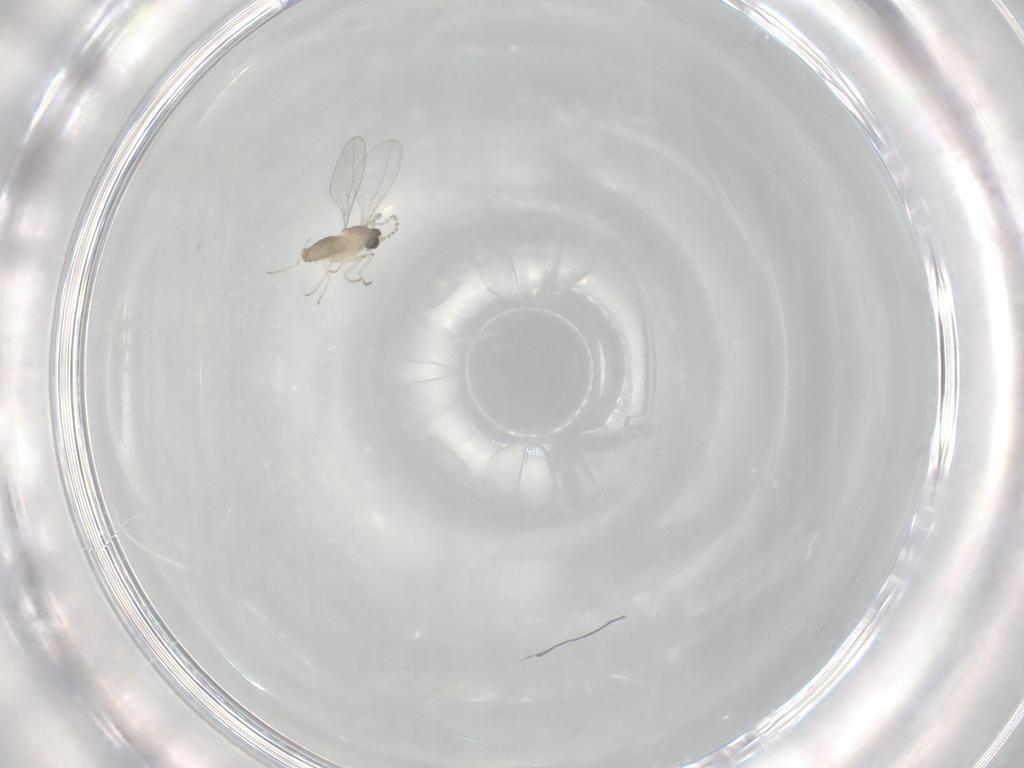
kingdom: Animalia
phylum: Arthropoda
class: Insecta
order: Diptera
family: Cecidomyiidae
